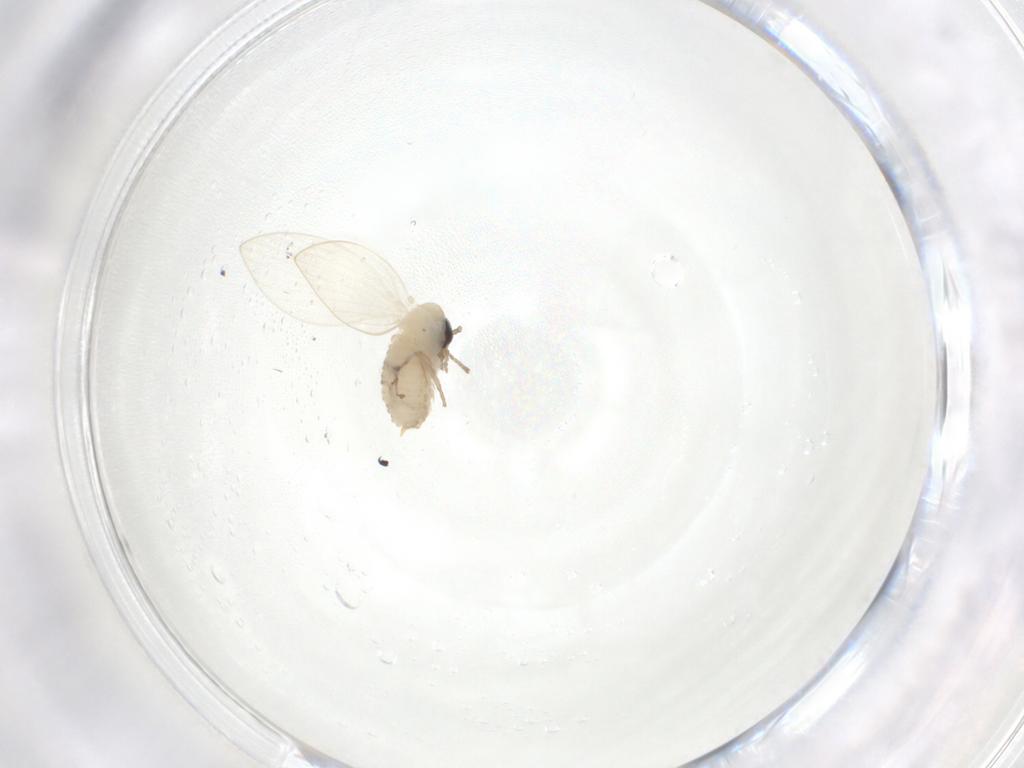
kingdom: Animalia
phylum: Arthropoda
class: Insecta
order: Diptera
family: Psychodidae
